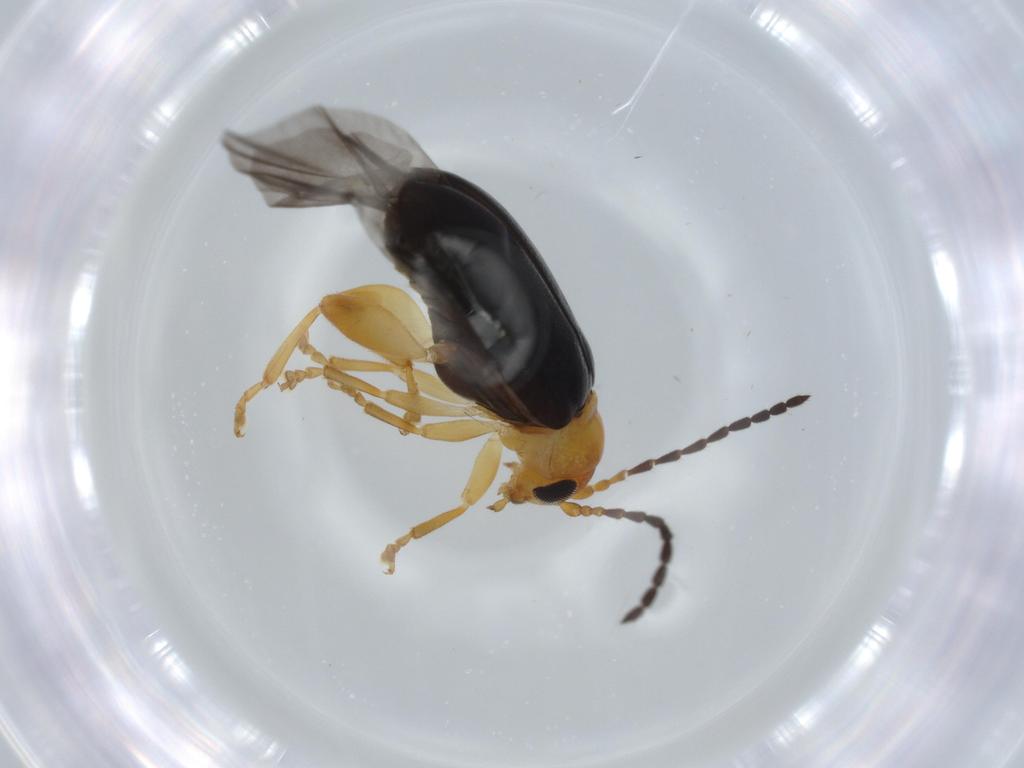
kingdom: Animalia
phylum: Arthropoda
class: Insecta
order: Coleoptera
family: Chrysomelidae
